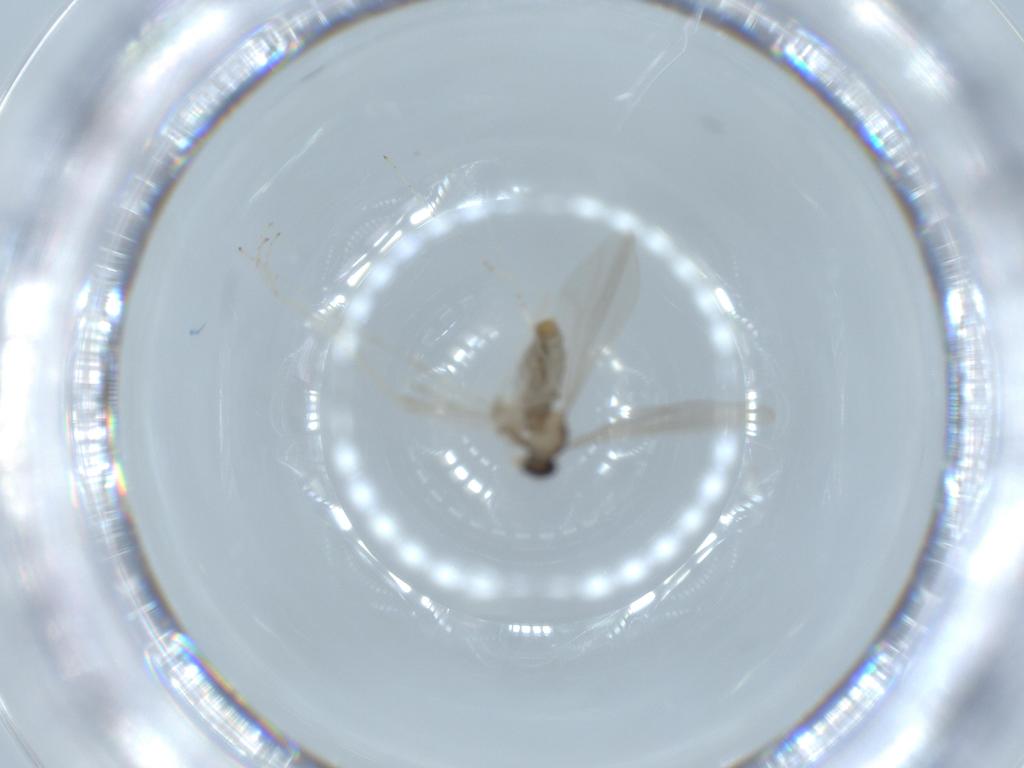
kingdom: Animalia
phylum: Arthropoda
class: Insecta
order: Diptera
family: Cecidomyiidae
